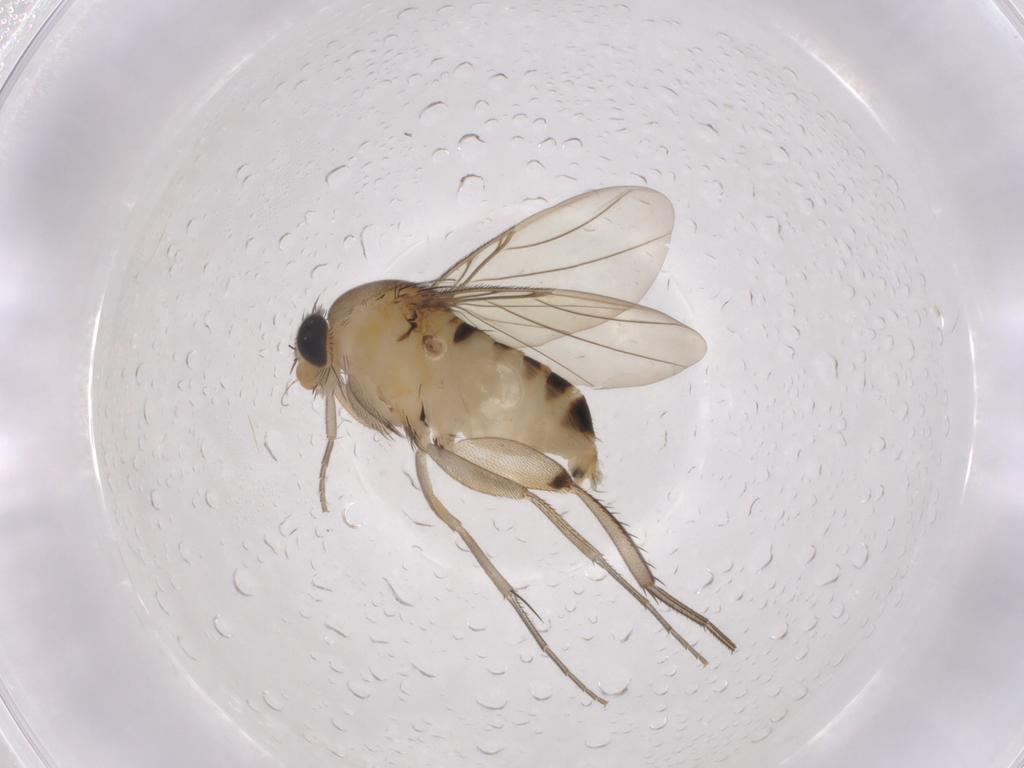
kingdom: Animalia
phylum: Arthropoda
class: Insecta
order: Diptera
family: Phoridae
